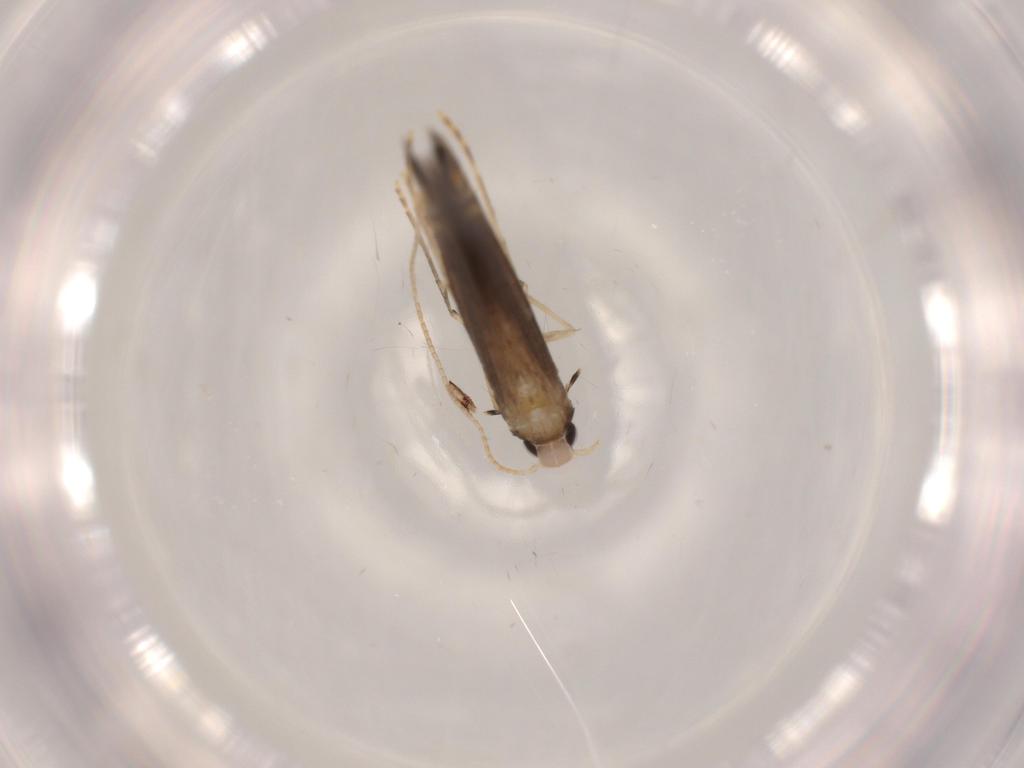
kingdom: Animalia
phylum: Arthropoda
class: Insecta
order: Lepidoptera
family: Gracillariidae
